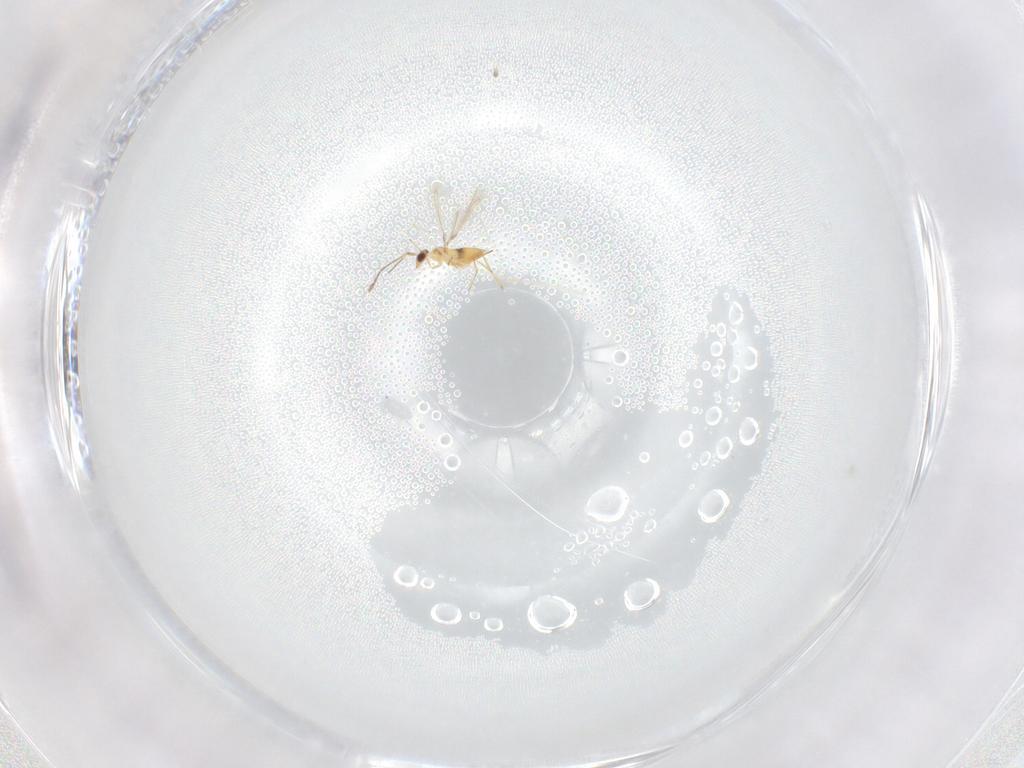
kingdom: Animalia
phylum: Arthropoda
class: Insecta
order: Hymenoptera
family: Mymaridae
